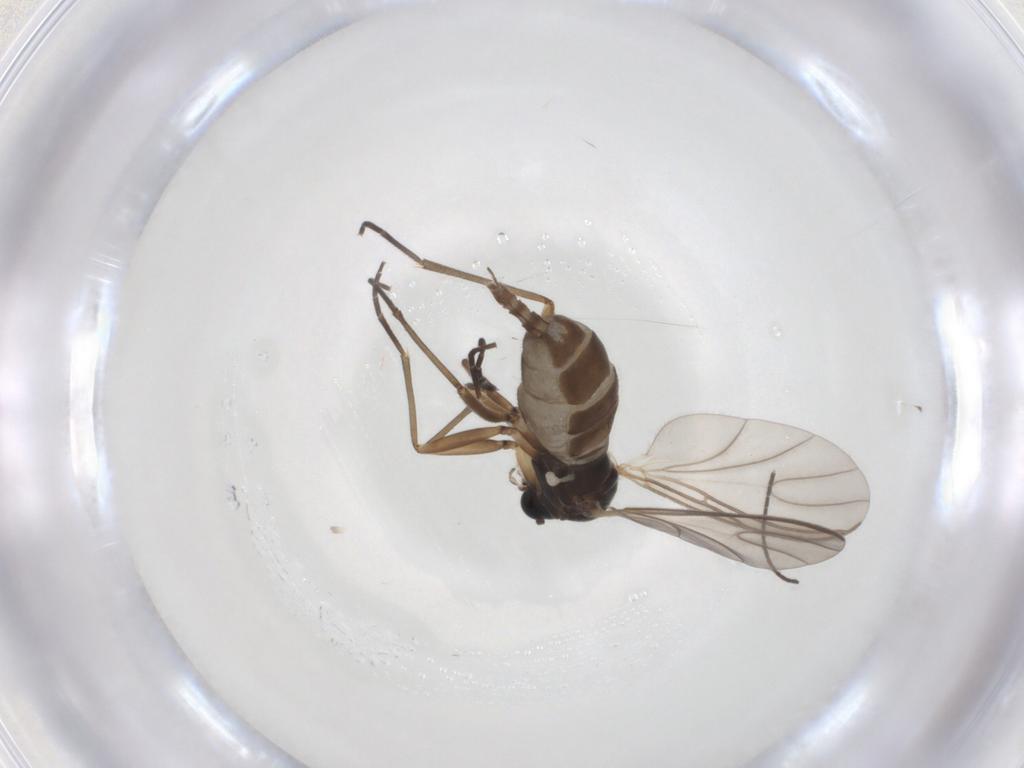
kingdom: Animalia
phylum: Arthropoda
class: Insecta
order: Diptera
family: Sciaridae
